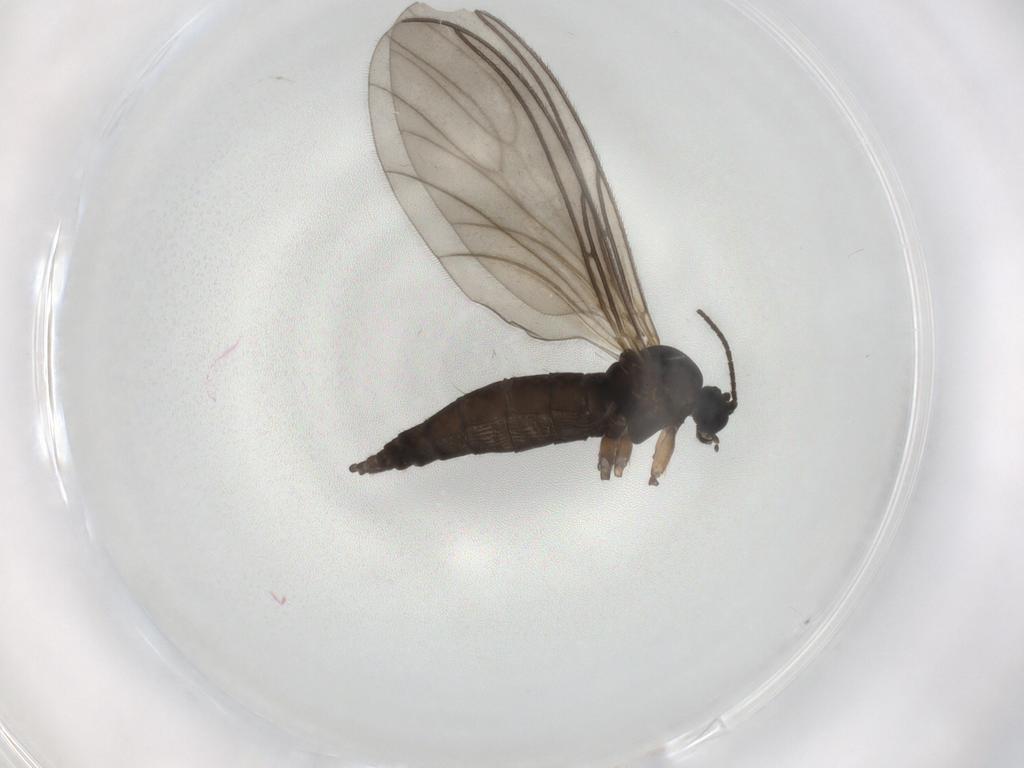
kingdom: Animalia
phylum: Arthropoda
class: Insecta
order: Diptera
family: Sciaridae
